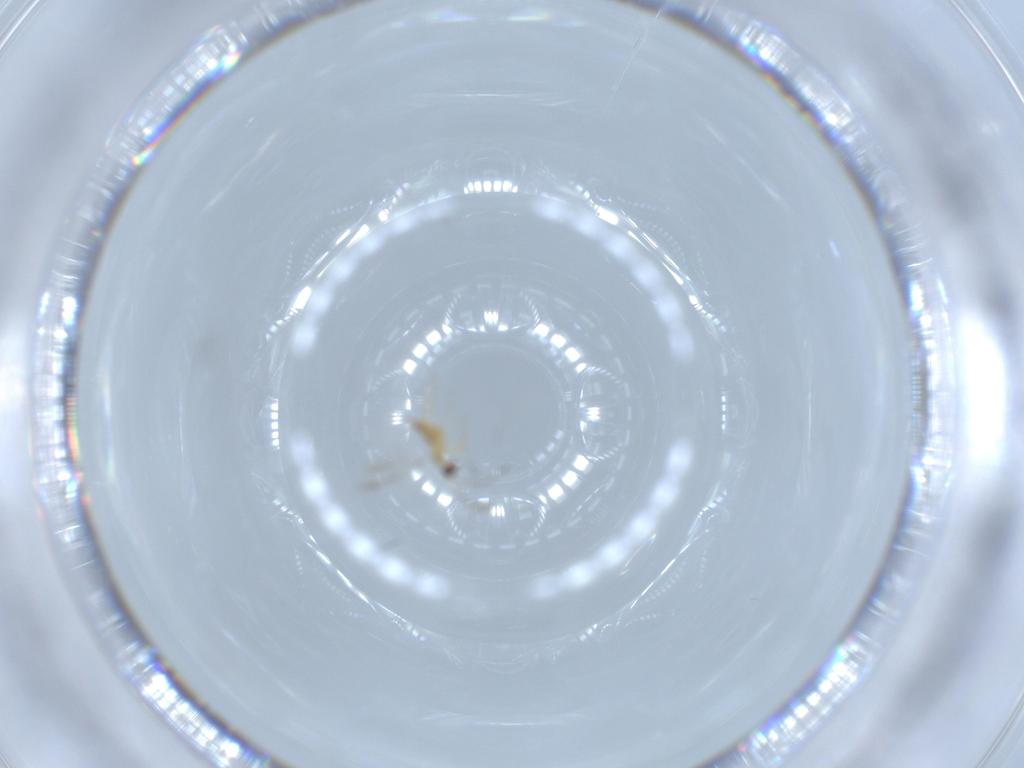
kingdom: Animalia
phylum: Arthropoda
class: Insecta
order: Hymenoptera
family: Mymaridae
